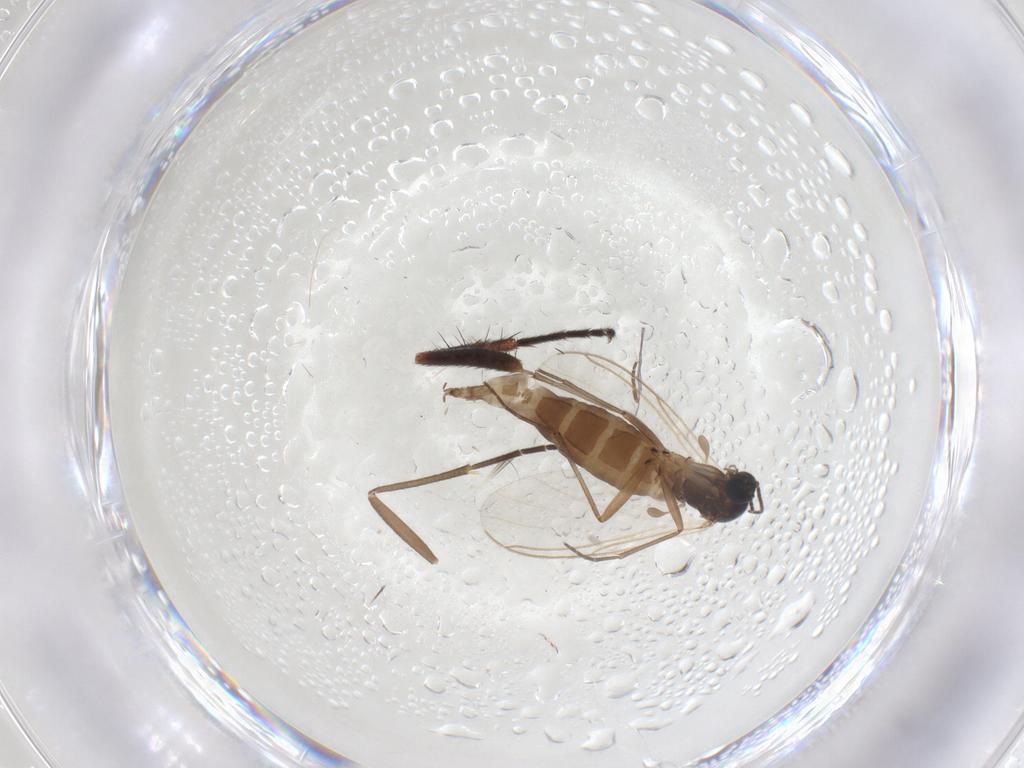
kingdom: Animalia
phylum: Arthropoda
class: Insecta
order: Diptera
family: Sciaridae
